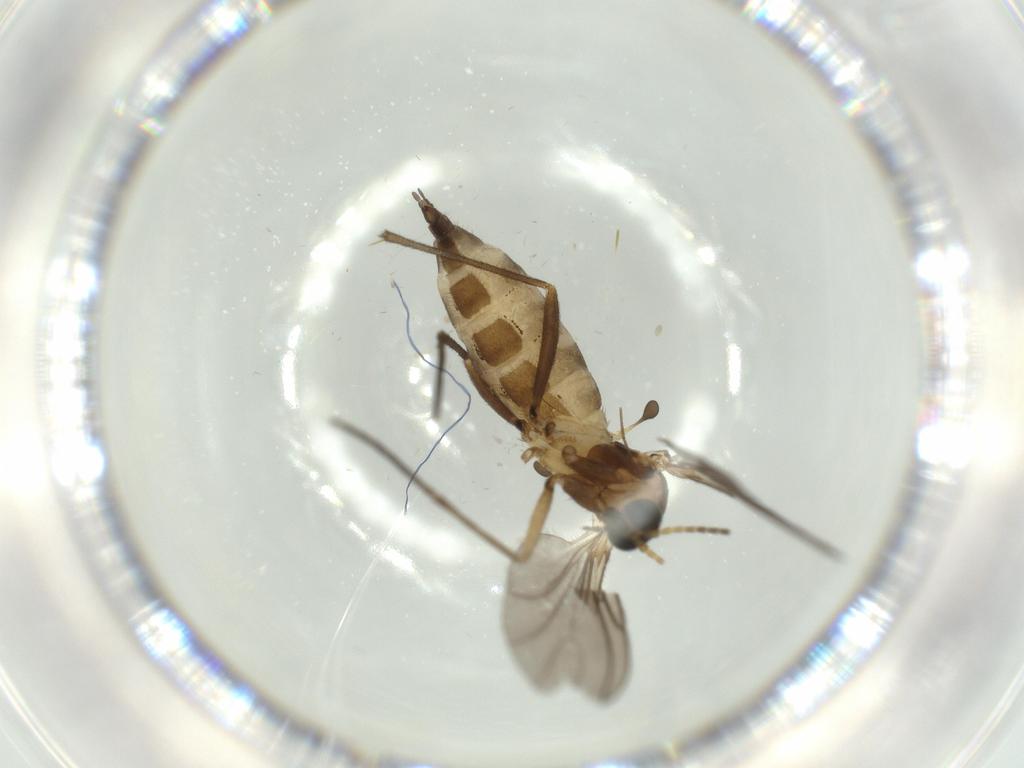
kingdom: Animalia
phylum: Arthropoda
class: Insecta
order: Diptera
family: Sciaridae
